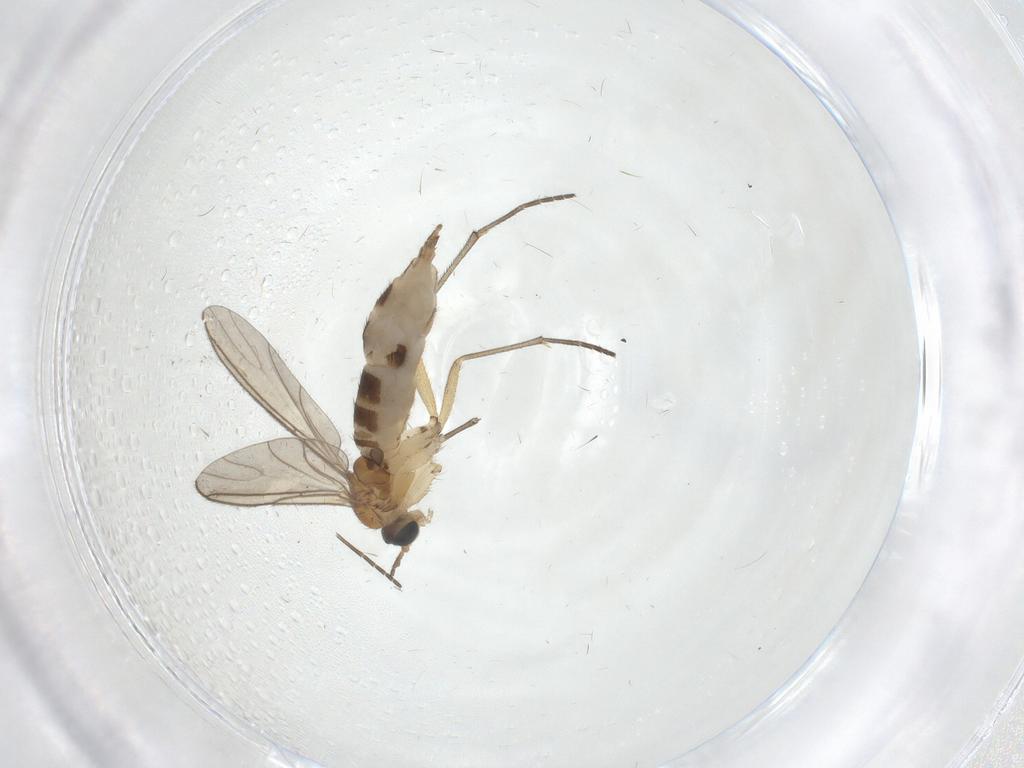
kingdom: Animalia
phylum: Arthropoda
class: Insecta
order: Diptera
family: Sciaridae
